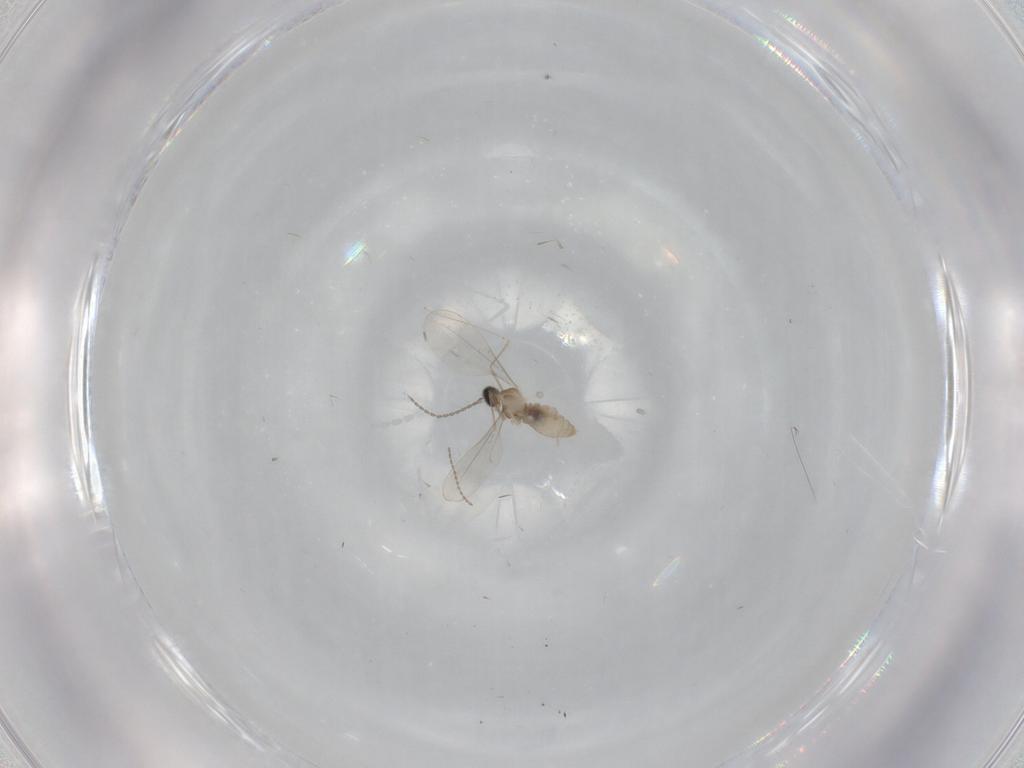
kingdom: Animalia
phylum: Arthropoda
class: Insecta
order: Diptera
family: Cecidomyiidae
